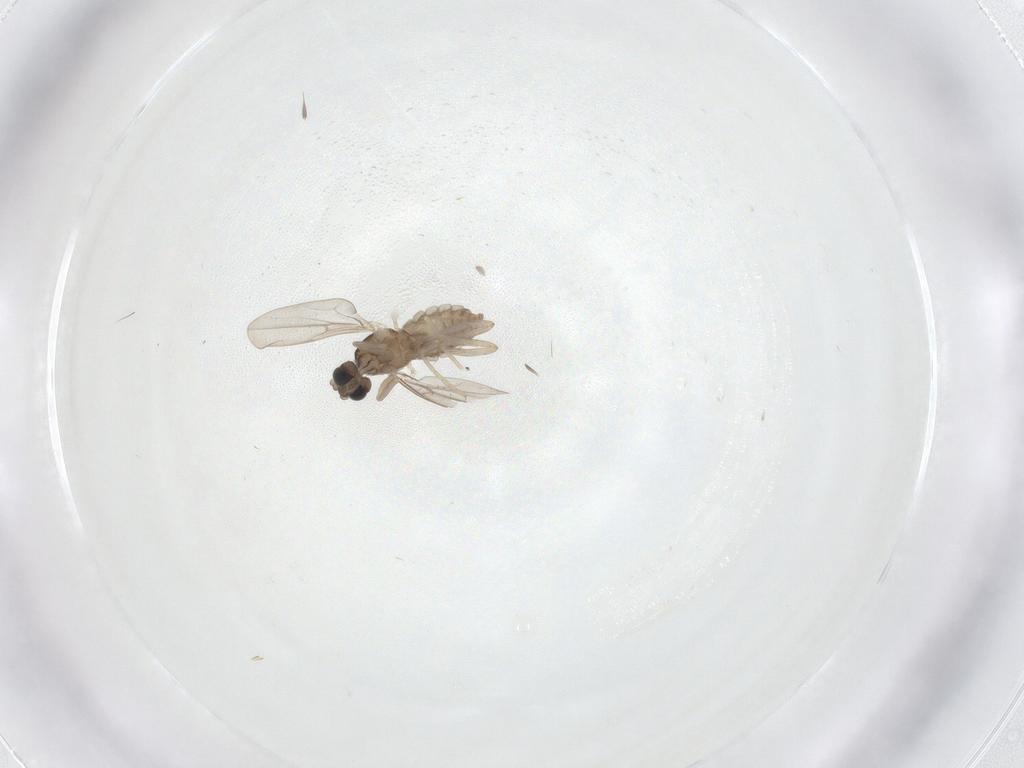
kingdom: Animalia
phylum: Arthropoda
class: Insecta
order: Diptera
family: Cecidomyiidae
